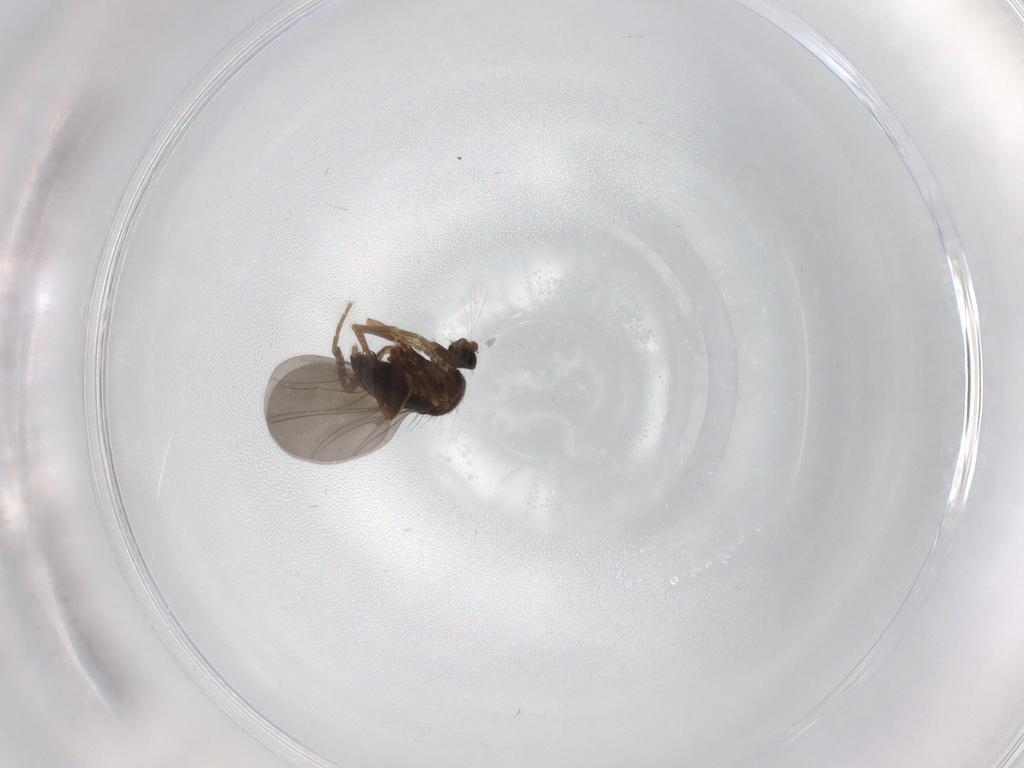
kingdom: Animalia
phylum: Arthropoda
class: Insecta
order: Diptera
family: Phoridae
